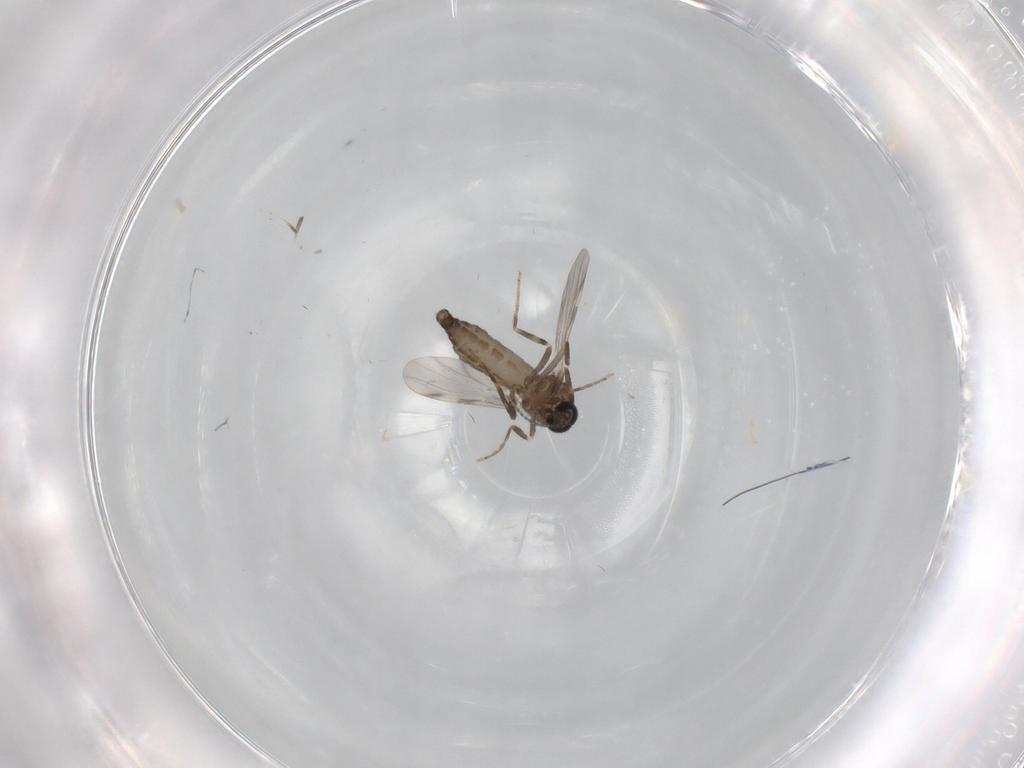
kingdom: Animalia
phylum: Arthropoda
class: Insecta
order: Diptera
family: Ceratopogonidae
